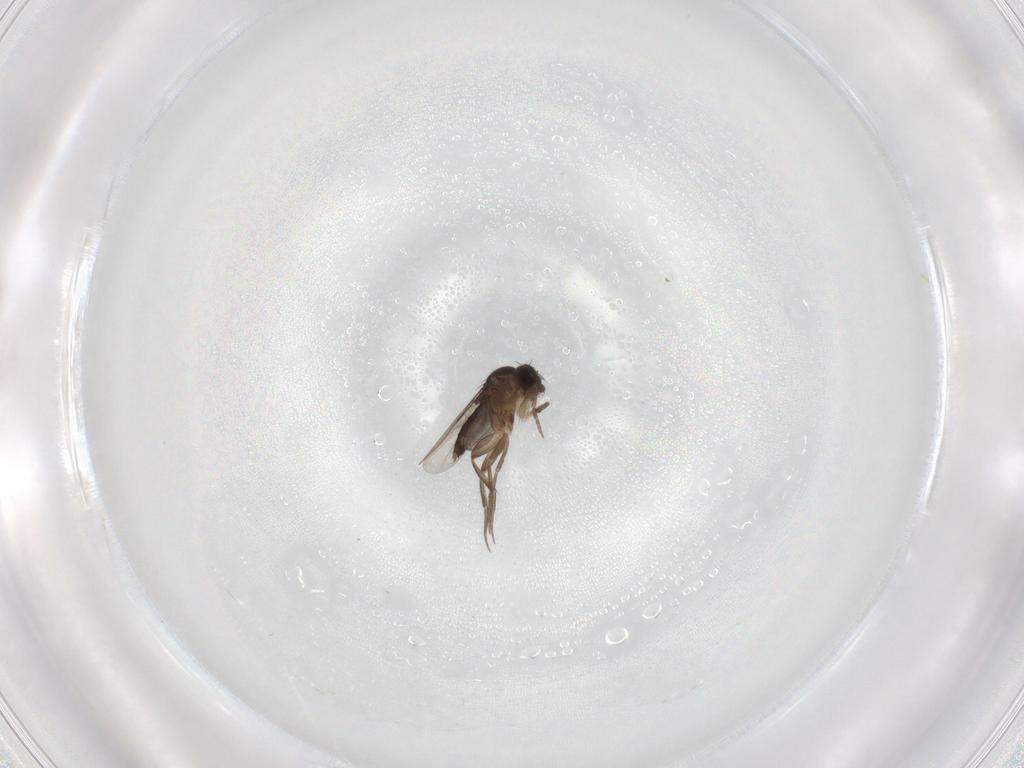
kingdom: Animalia
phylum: Arthropoda
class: Insecta
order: Diptera
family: Phoridae
